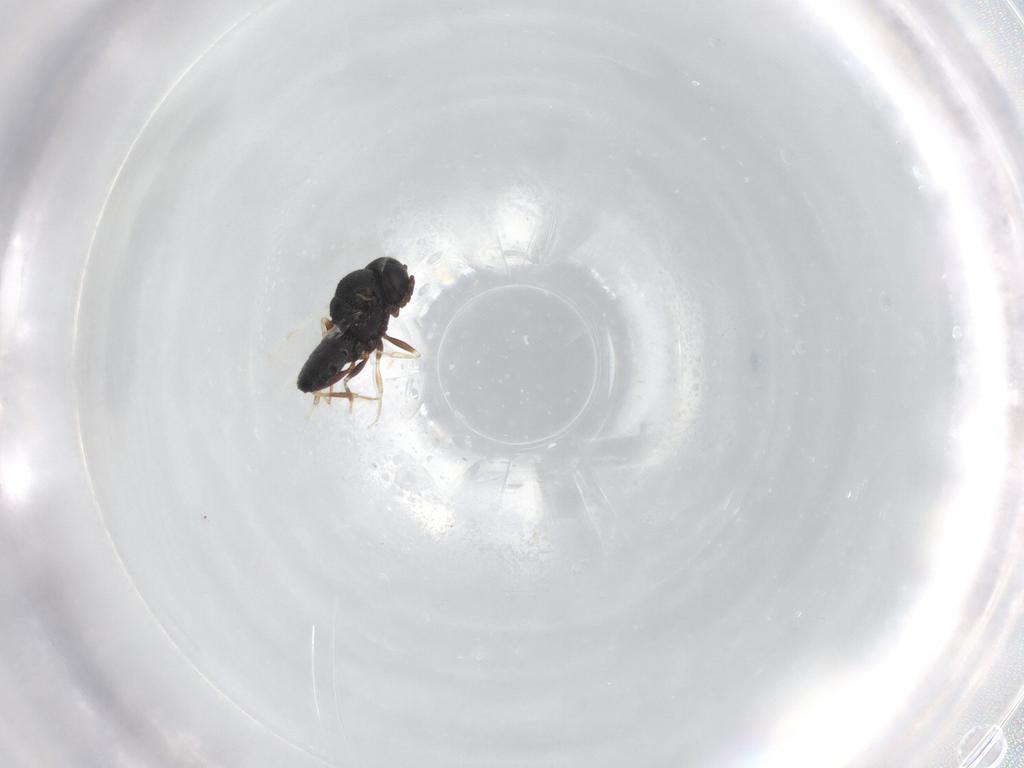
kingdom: Animalia
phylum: Arthropoda
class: Insecta
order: Hymenoptera
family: Scelionidae
